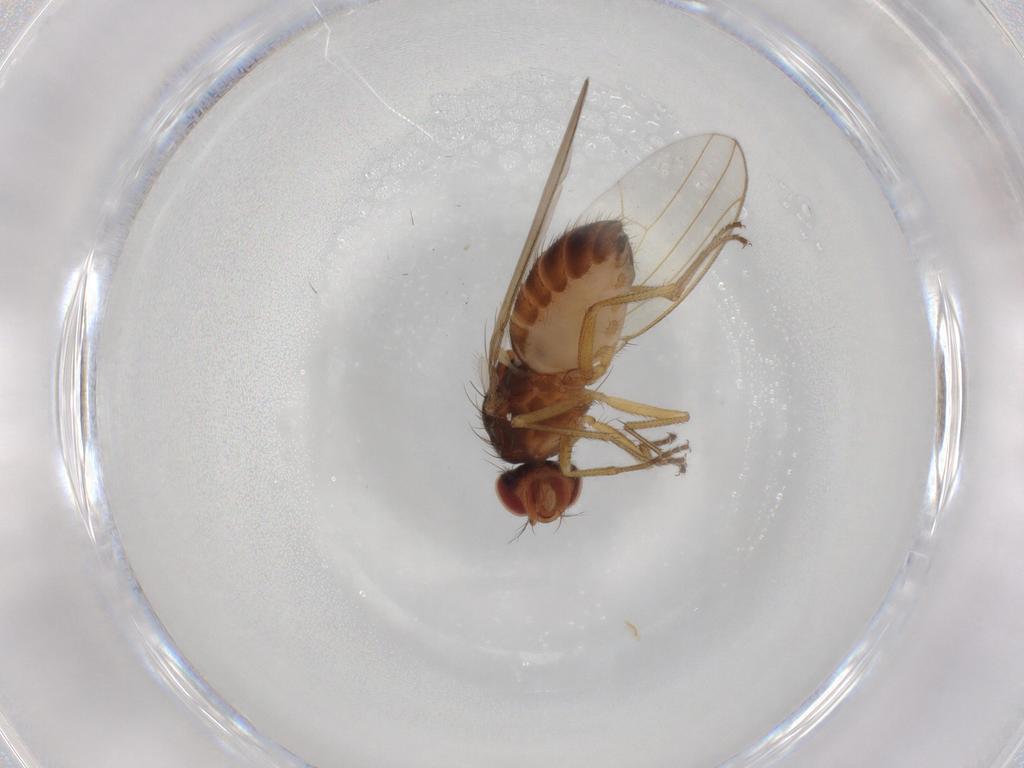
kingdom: Animalia
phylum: Arthropoda
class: Insecta
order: Diptera
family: Drosophilidae
